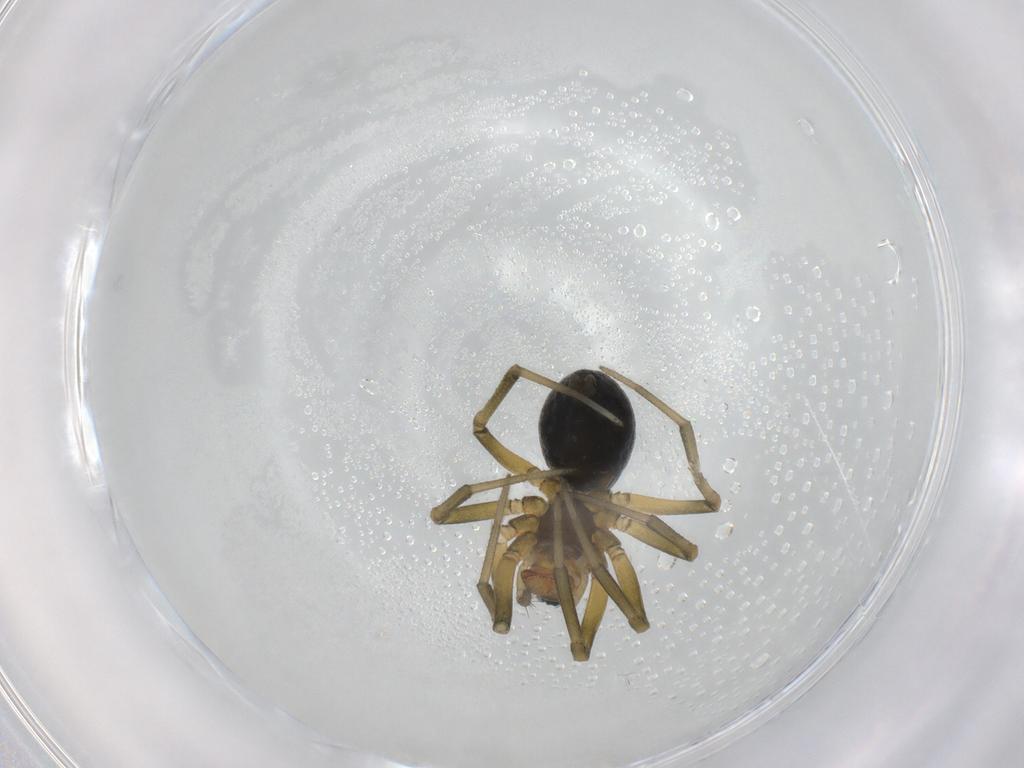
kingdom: Animalia
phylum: Arthropoda
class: Arachnida
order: Araneae
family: Linyphiidae
